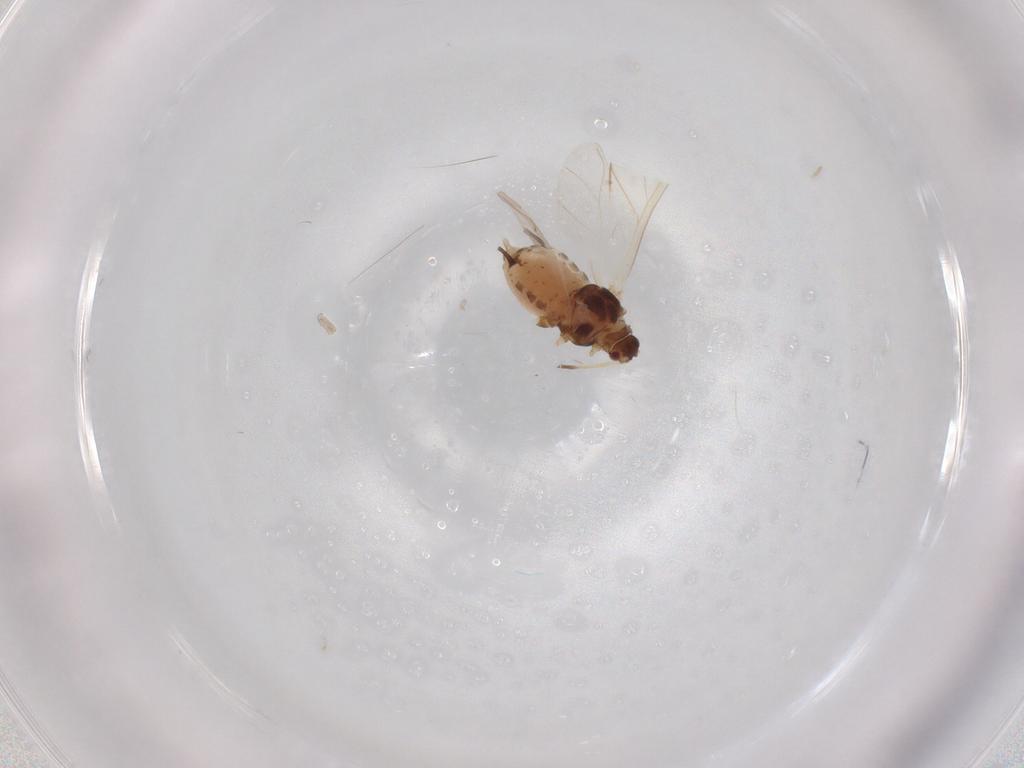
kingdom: Animalia
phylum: Arthropoda
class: Insecta
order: Hemiptera
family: Aphididae
